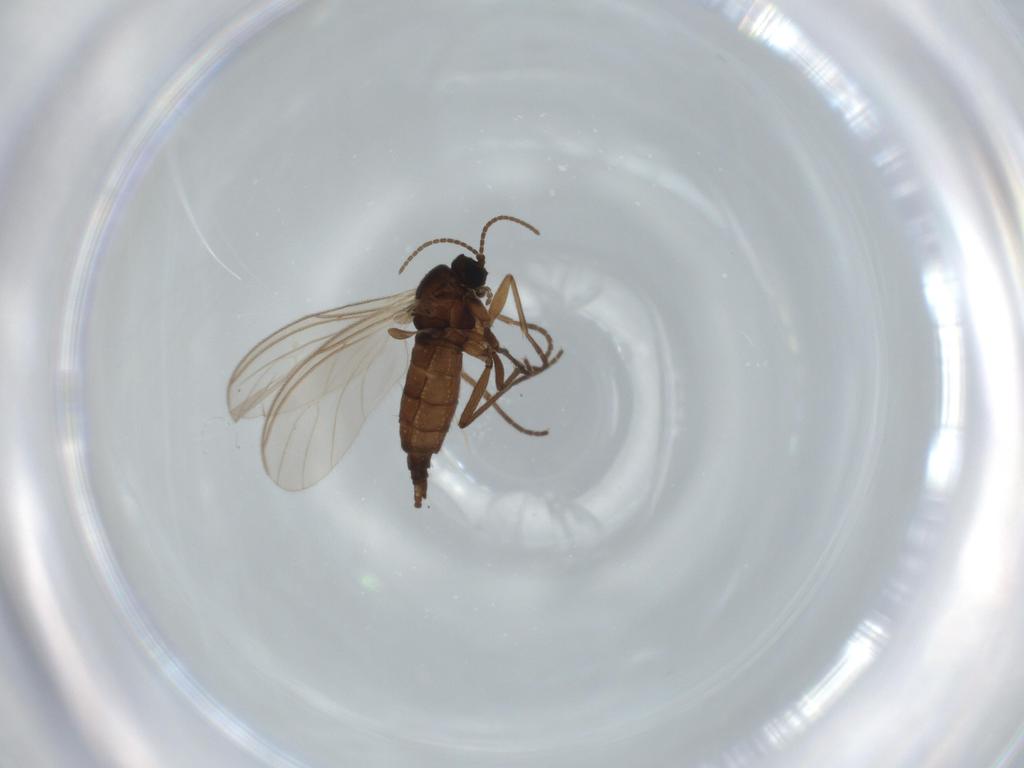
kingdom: Animalia
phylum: Arthropoda
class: Insecta
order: Diptera
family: Sciaridae
